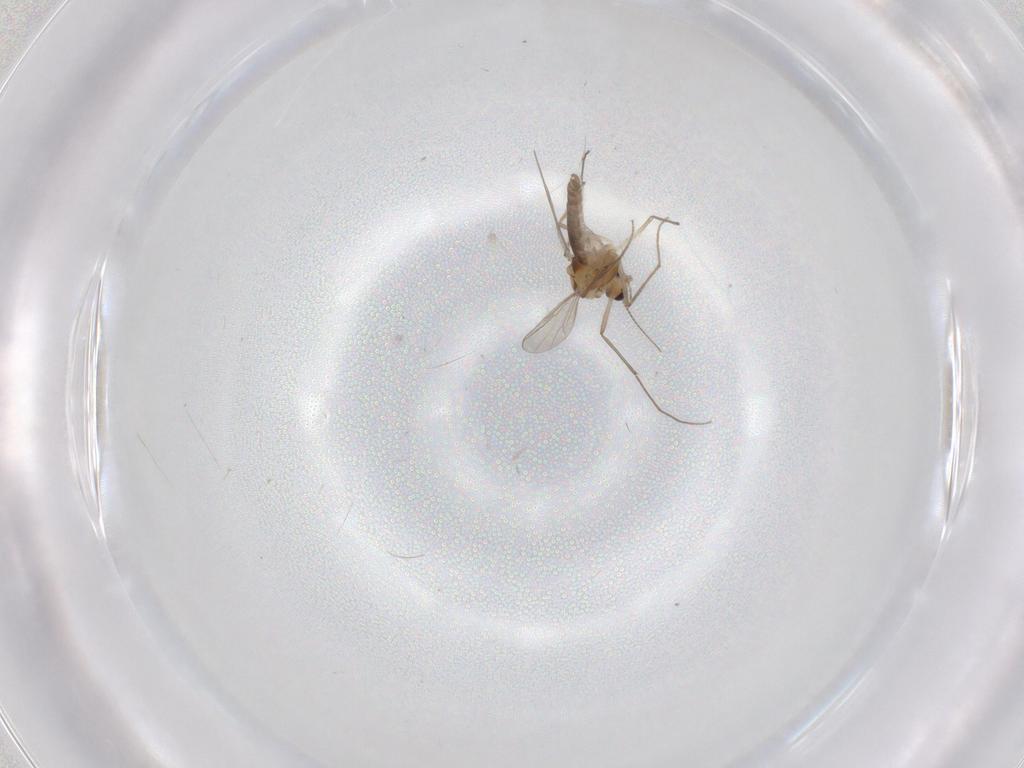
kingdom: Animalia
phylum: Arthropoda
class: Insecta
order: Diptera
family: Chironomidae
